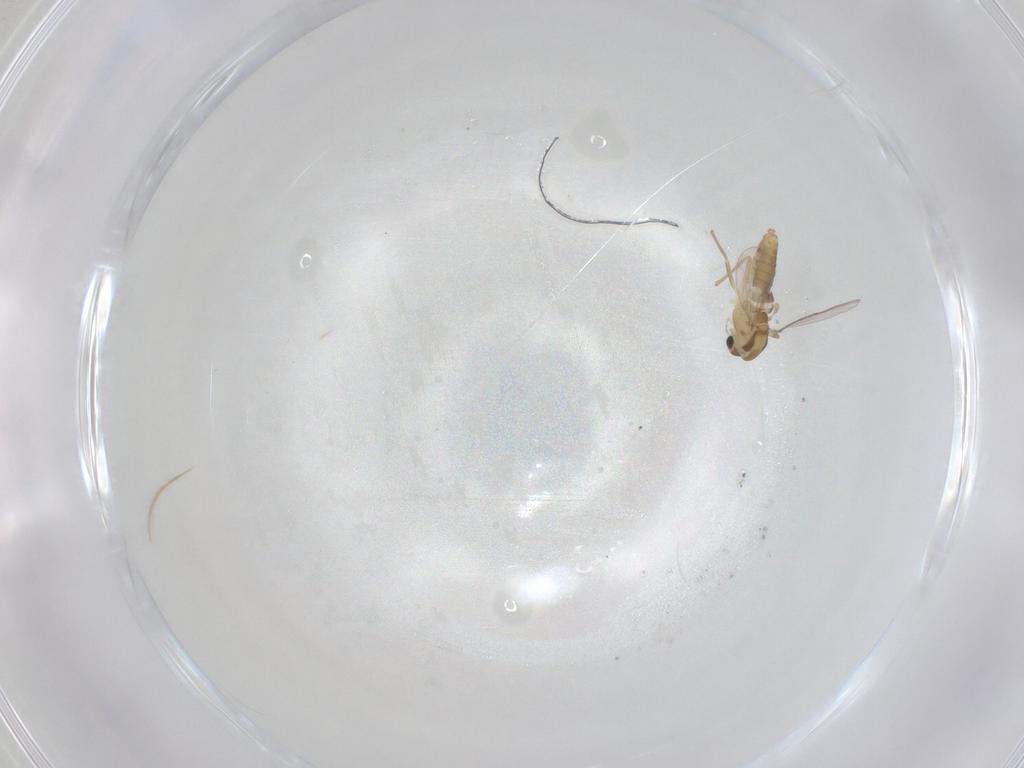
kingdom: Animalia
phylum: Arthropoda
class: Insecta
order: Diptera
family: Chironomidae
